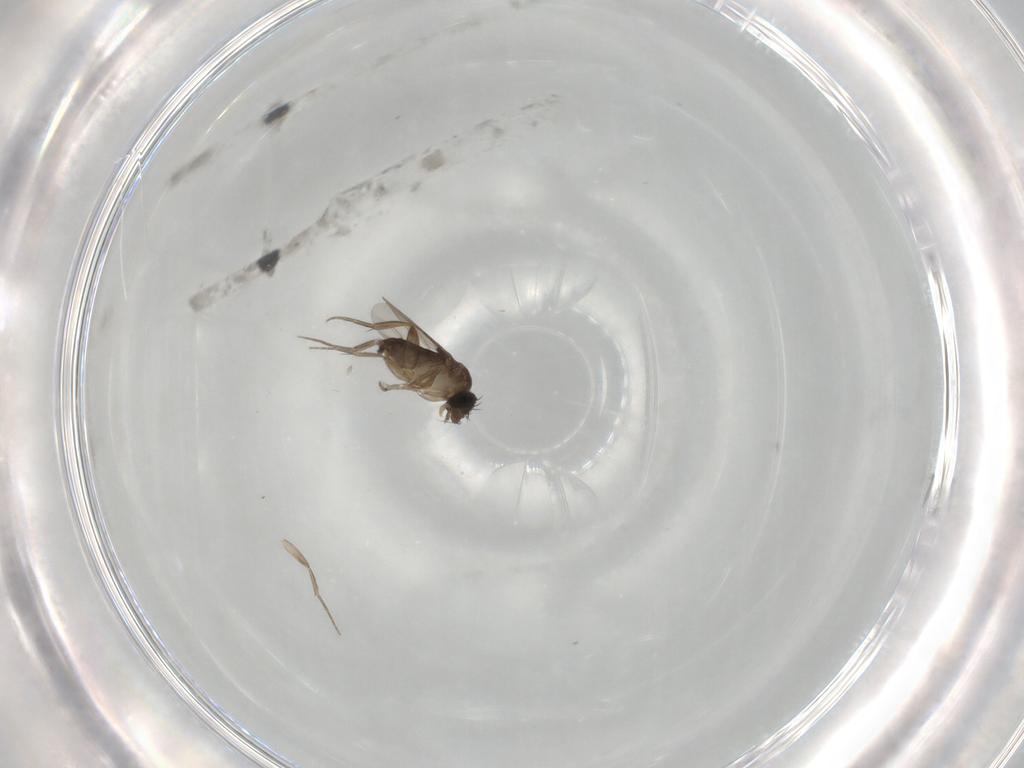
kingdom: Animalia
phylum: Arthropoda
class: Insecta
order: Diptera
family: Phoridae
